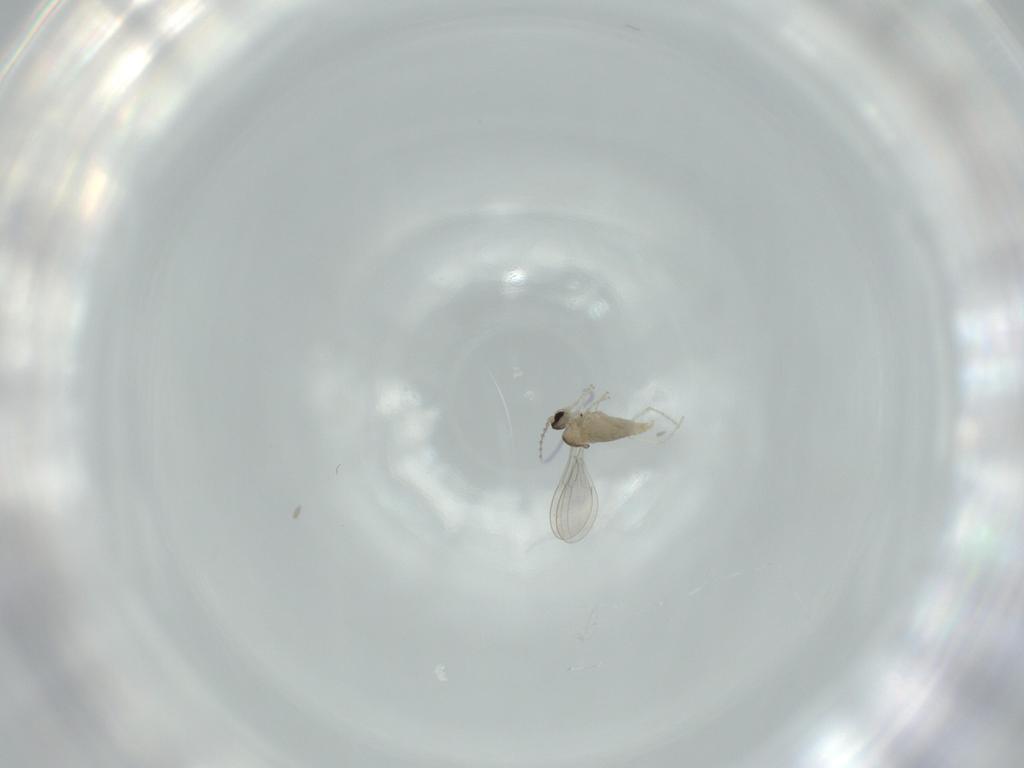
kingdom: Animalia
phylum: Arthropoda
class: Insecta
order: Diptera
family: Cecidomyiidae
